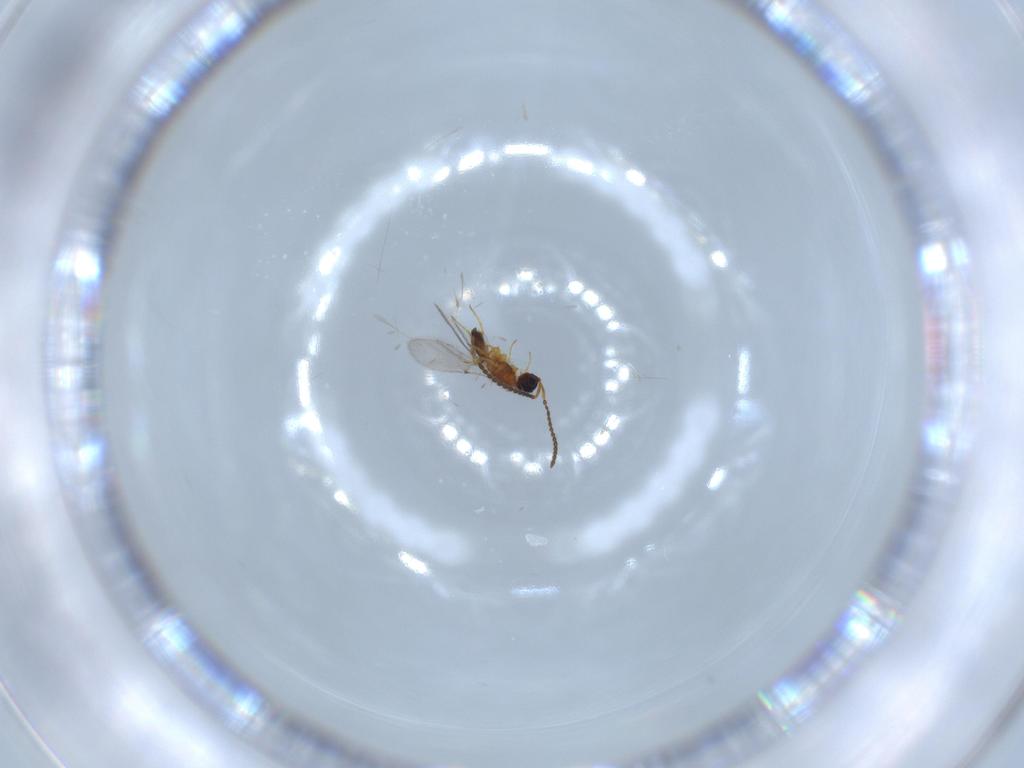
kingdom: Animalia
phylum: Arthropoda
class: Insecta
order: Hymenoptera
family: Diapriidae
